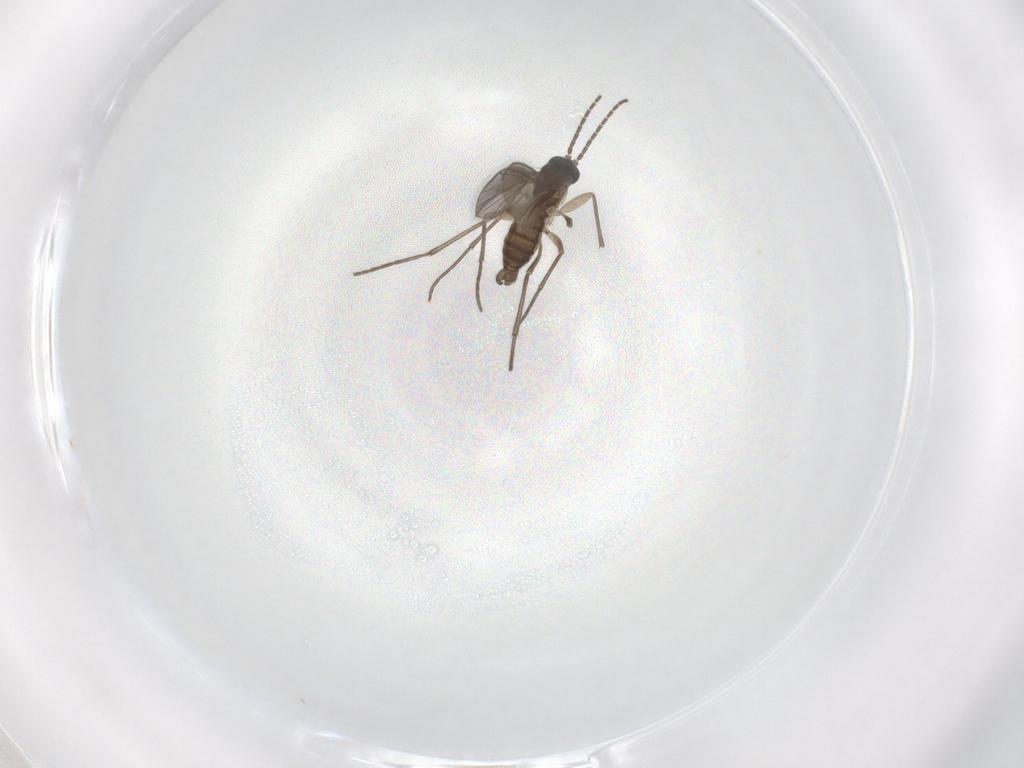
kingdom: Animalia
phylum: Arthropoda
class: Insecta
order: Diptera
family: Sciaridae
